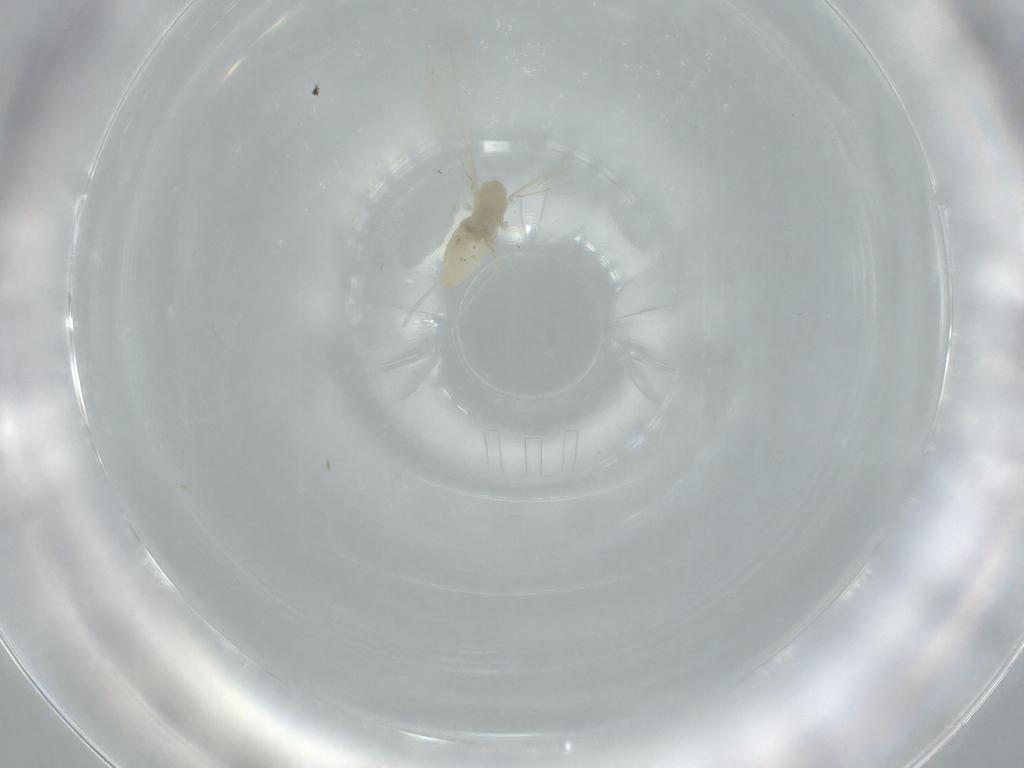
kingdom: Animalia
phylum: Arthropoda
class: Insecta
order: Diptera
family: Cecidomyiidae
